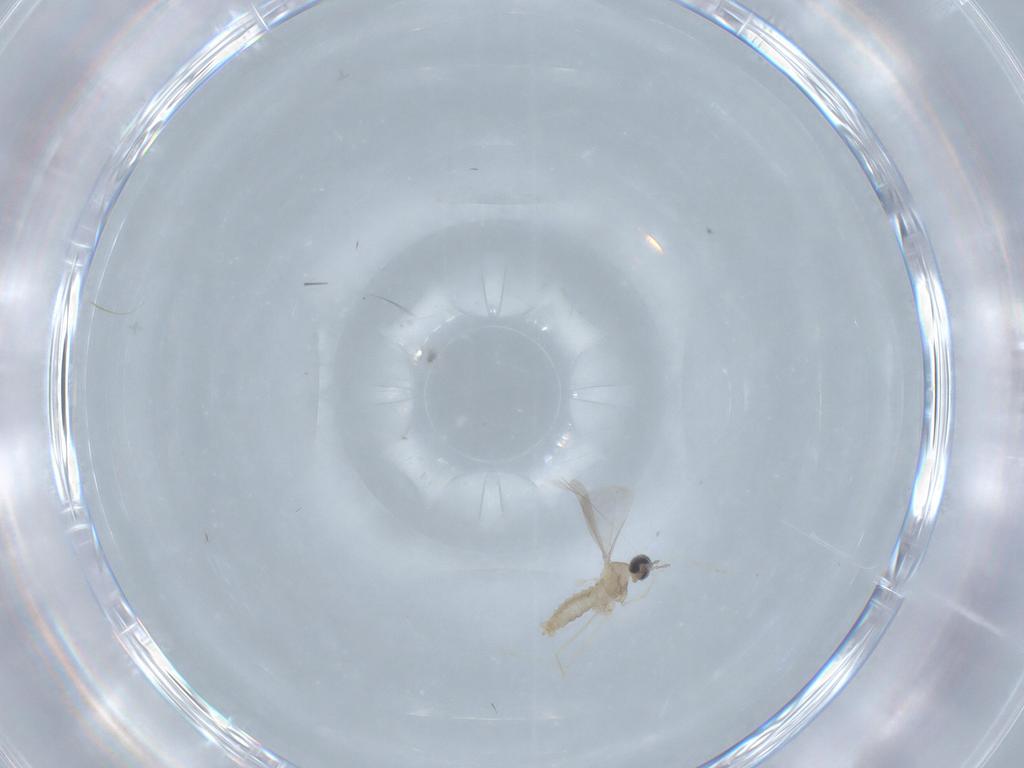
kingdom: Animalia
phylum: Arthropoda
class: Insecta
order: Diptera
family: Cecidomyiidae
